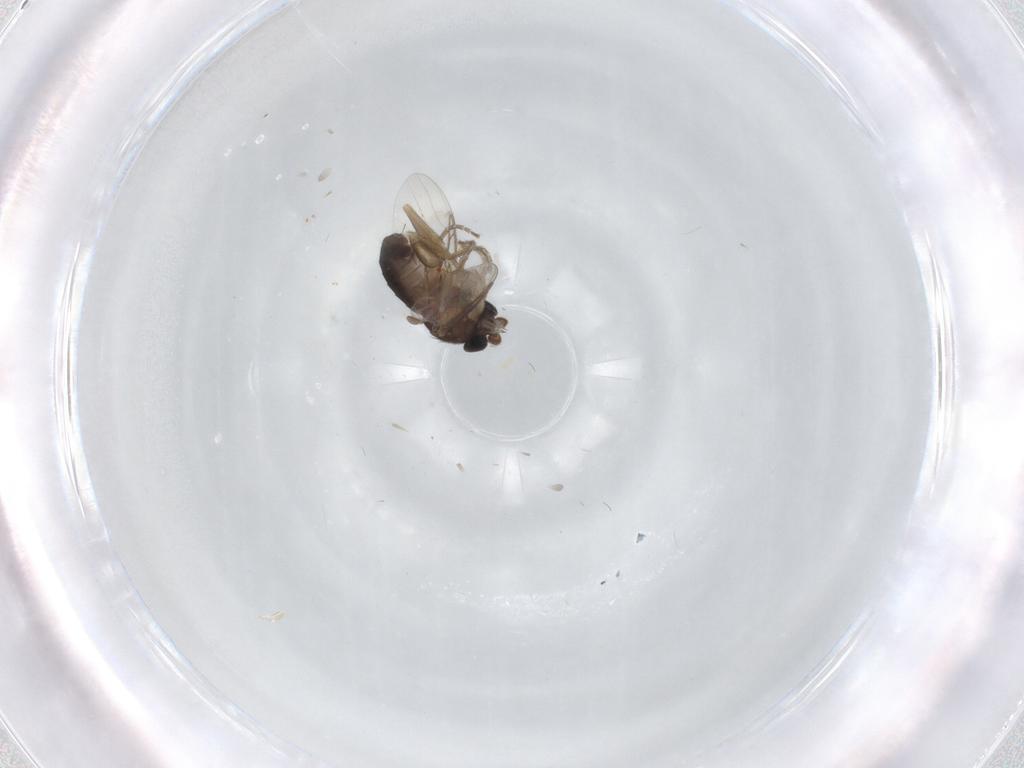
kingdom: Animalia
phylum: Arthropoda
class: Insecta
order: Diptera
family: Phoridae
